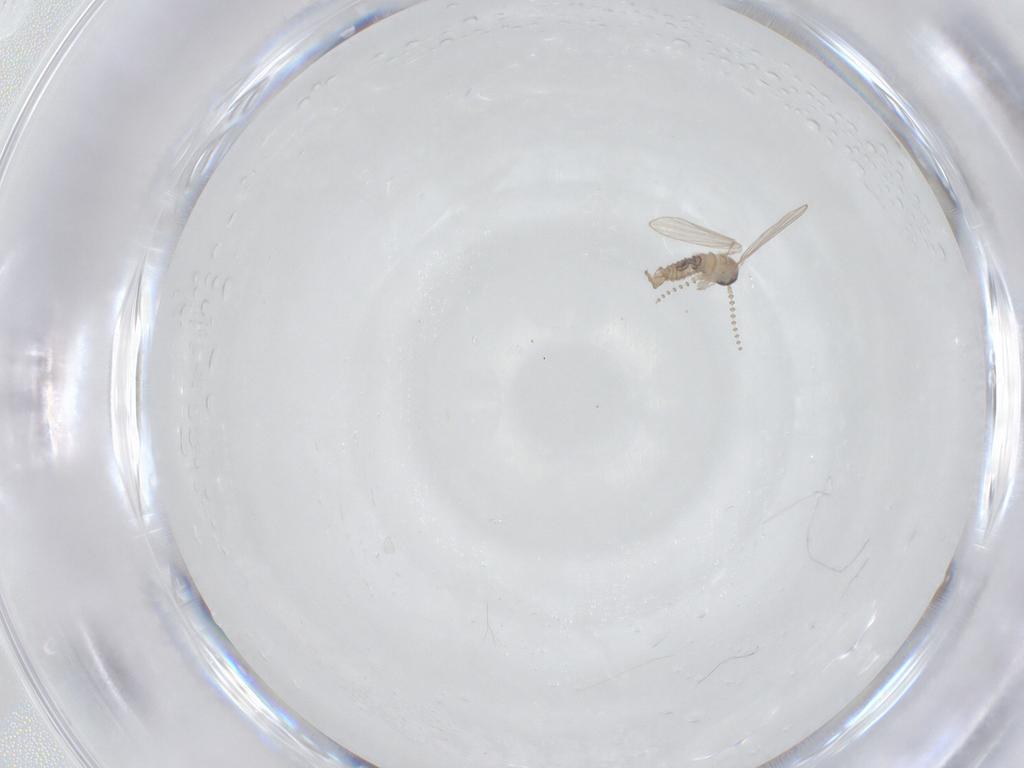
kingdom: Animalia
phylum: Arthropoda
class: Insecta
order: Diptera
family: Psychodidae
